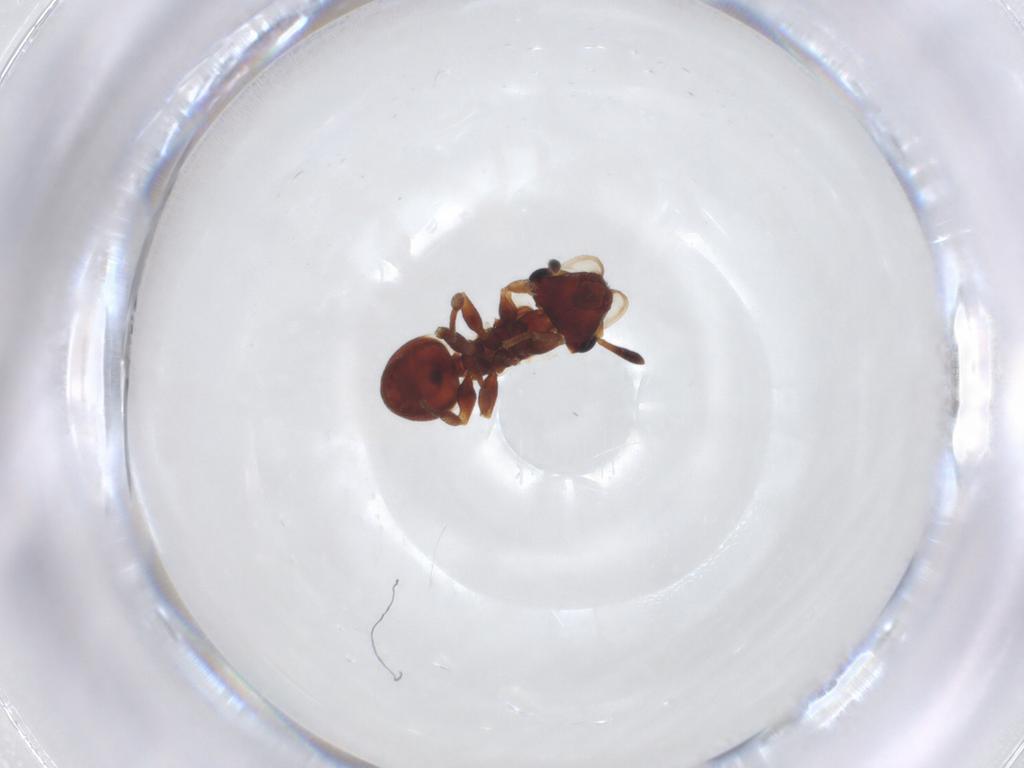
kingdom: Animalia
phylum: Arthropoda
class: Insecta
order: Hymenoptera
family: Formicidae
